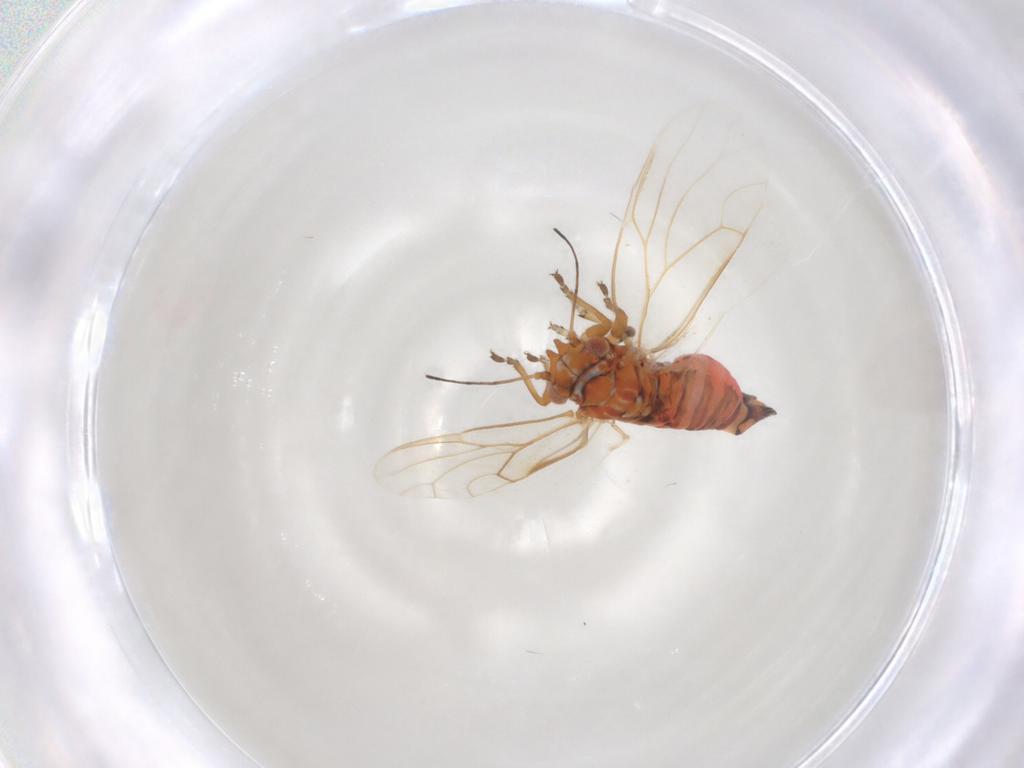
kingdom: Animalia
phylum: Arthropoda
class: Insecta
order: Hemiptera
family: Psyllidae
